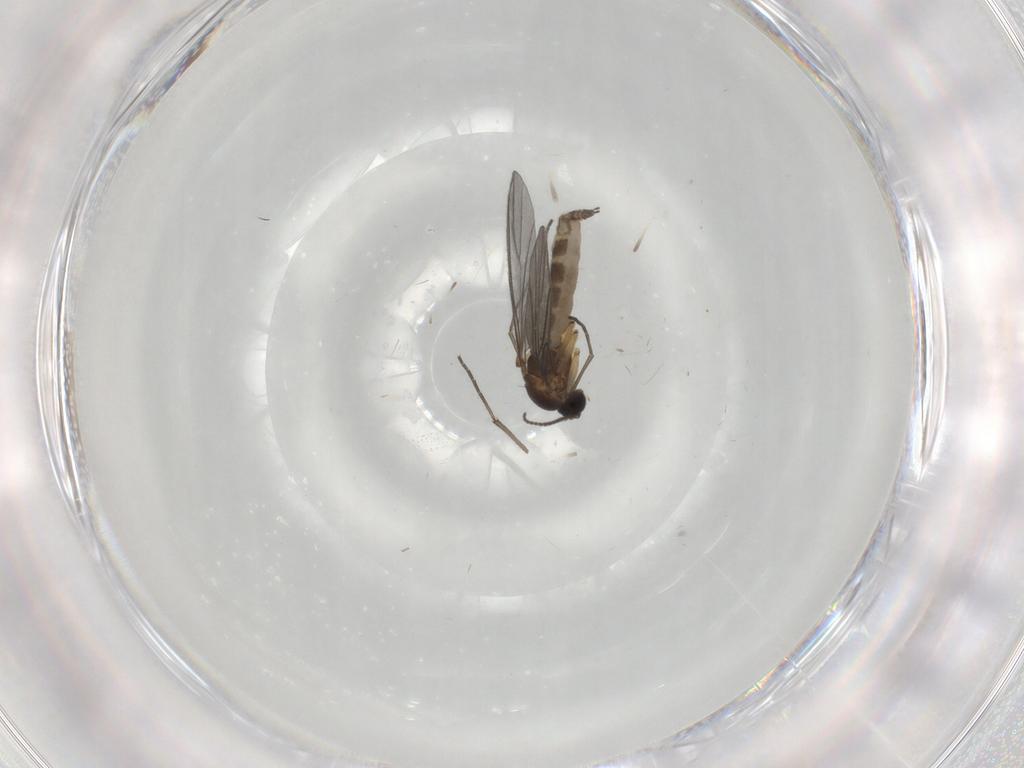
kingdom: Animalia
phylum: Arthropoda
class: Insecta
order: Diptera
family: Sciaridae
